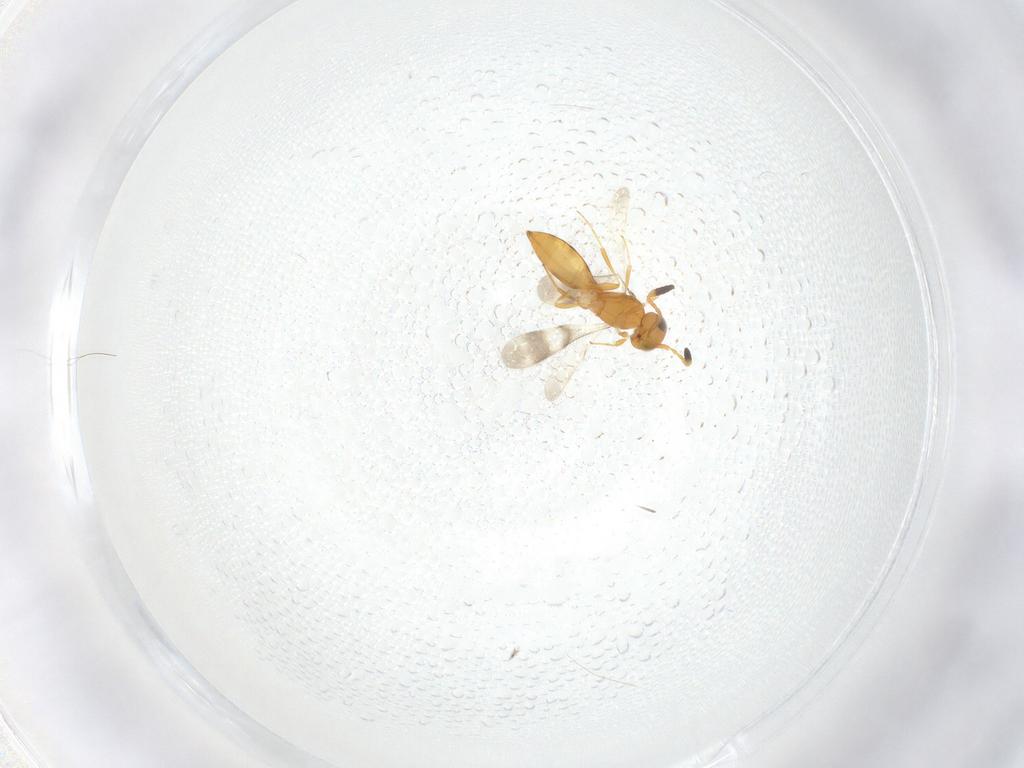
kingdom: Animalia
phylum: Arthropoda
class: Insecta
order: Hymenoptera
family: Scelionidae
